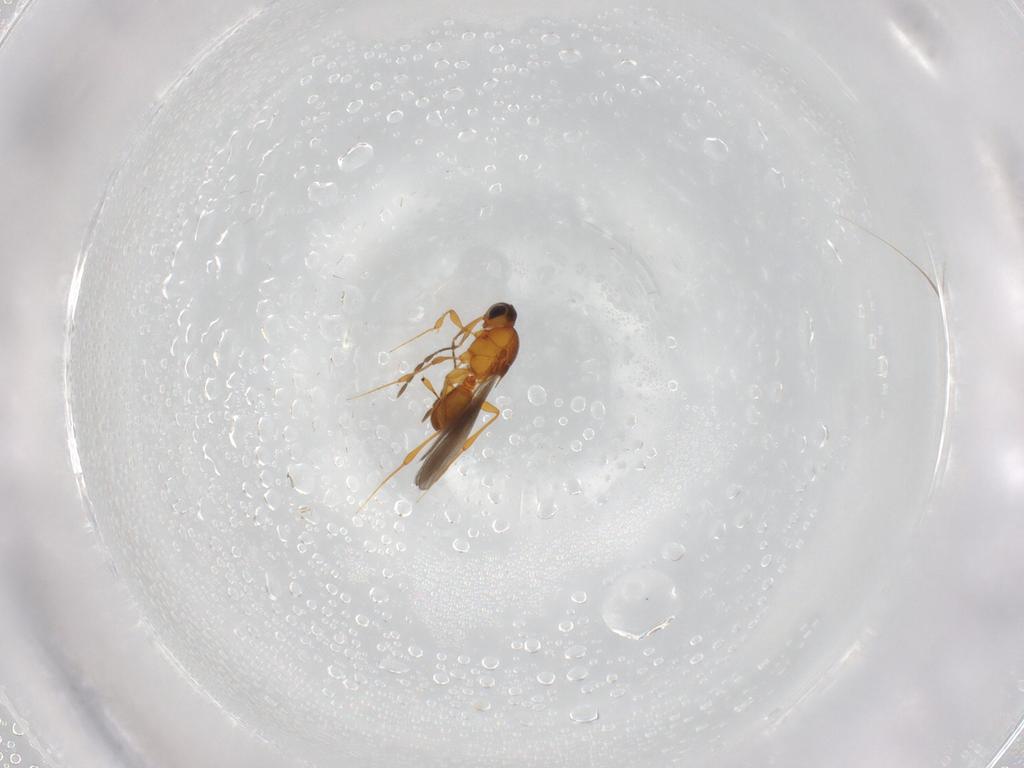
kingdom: Animalia
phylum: Arthropoda
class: Insecta
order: Hymenoptera
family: Platygastridae
